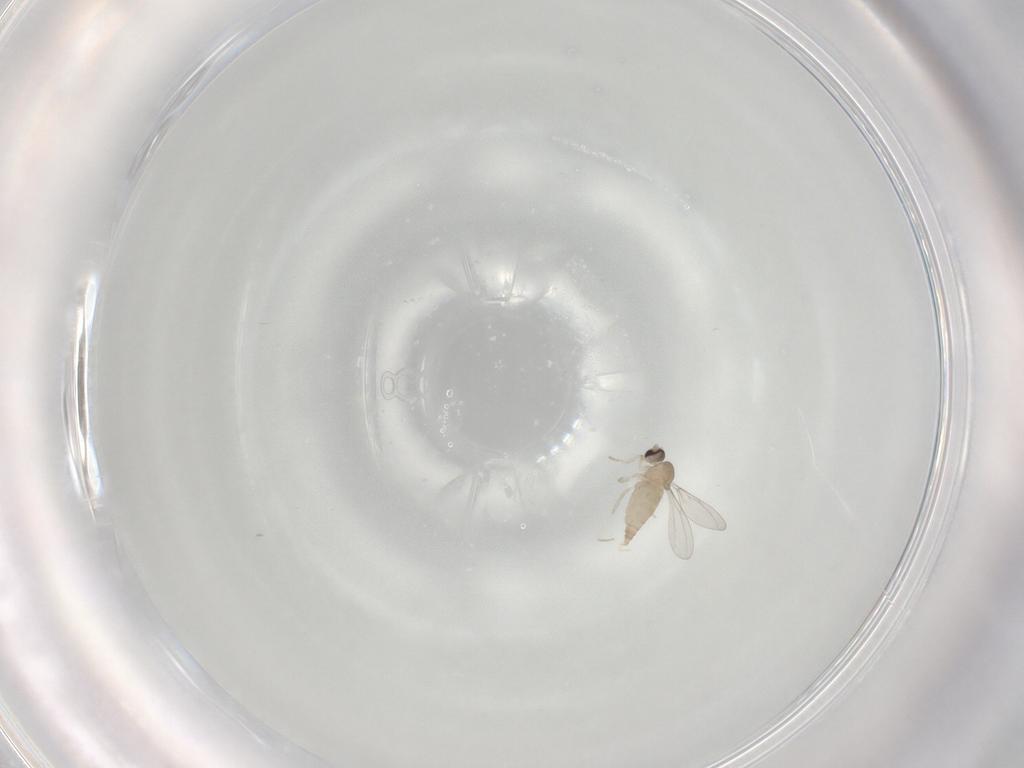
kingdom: Animalia
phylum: Arthropoda
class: Insecta
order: Diptera
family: Cecidomyiidae
